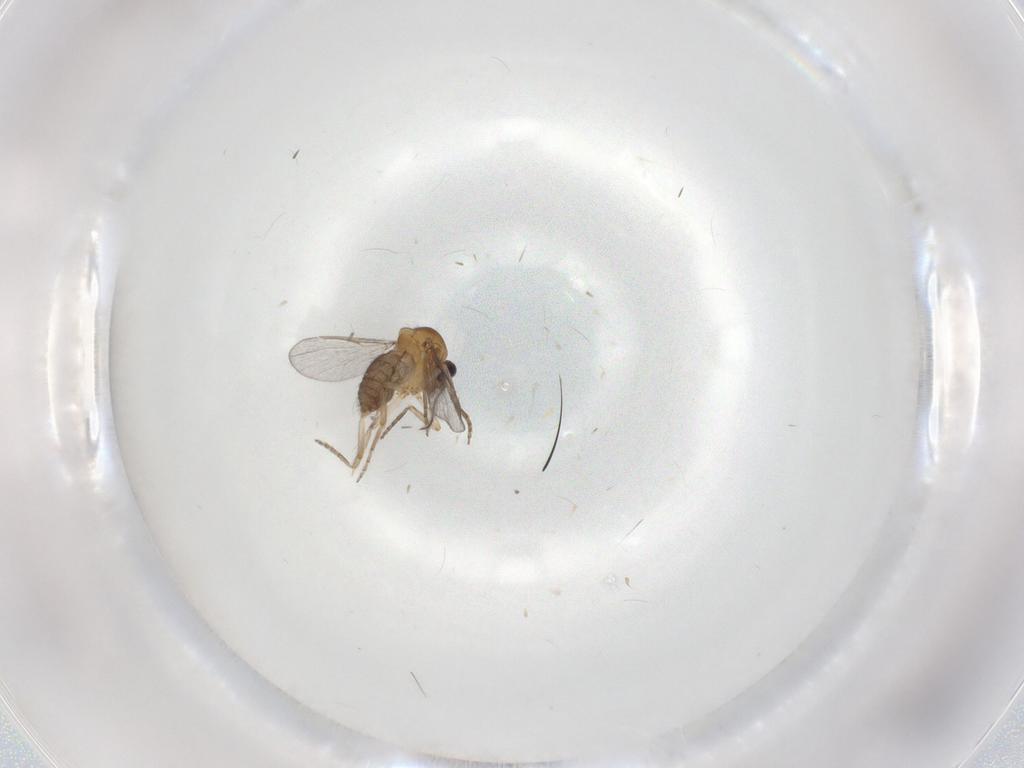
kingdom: Animalia
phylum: Arthropoda
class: Insecta
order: Diptera
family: Ceratopogonidae
